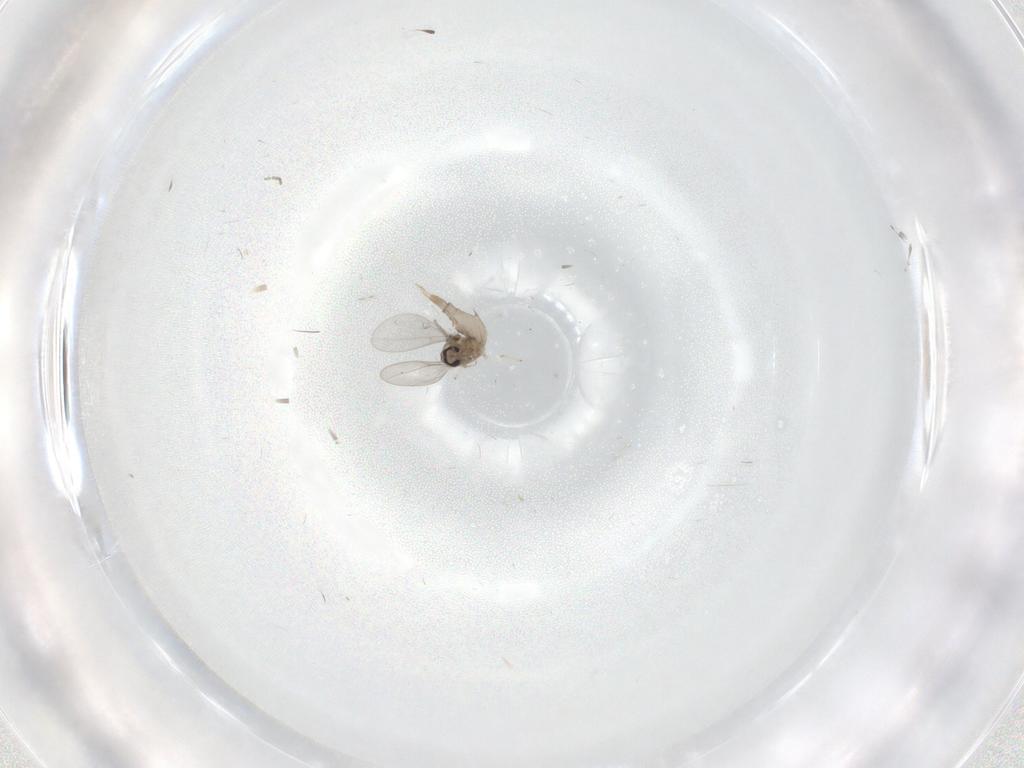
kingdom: Animalia
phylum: Arthropoda
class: Insecta
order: Diptera
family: Cecidomyiidae
